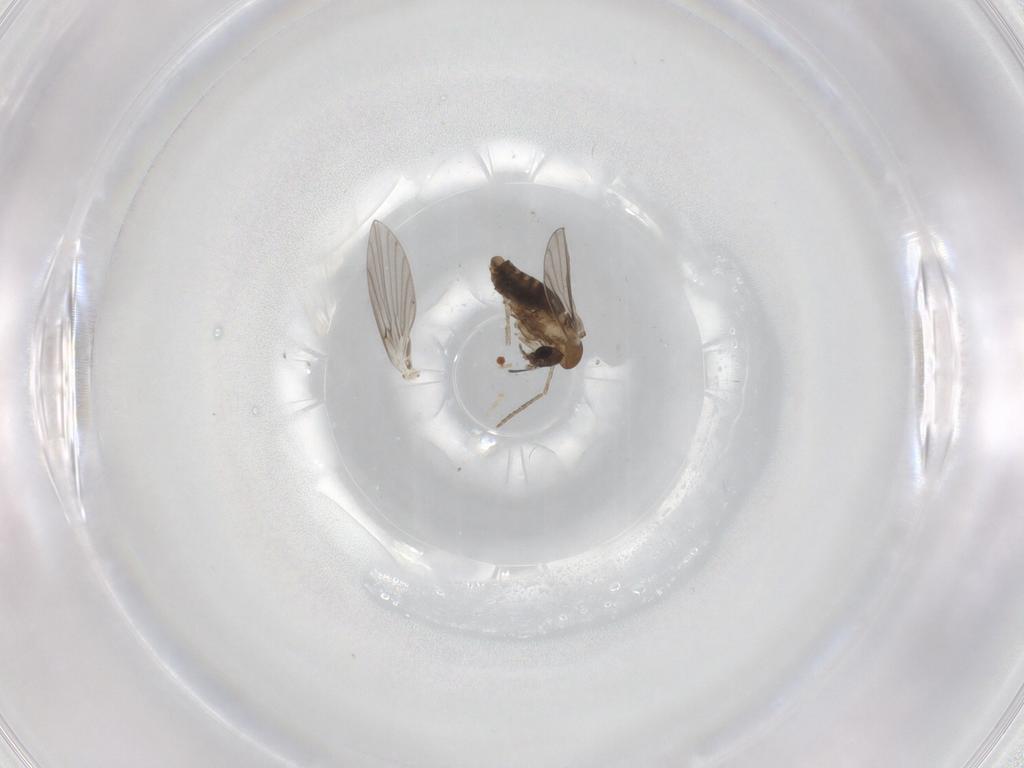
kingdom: Animalia
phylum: Arthropoda
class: Insecta
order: Diptera
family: Psychodidae
